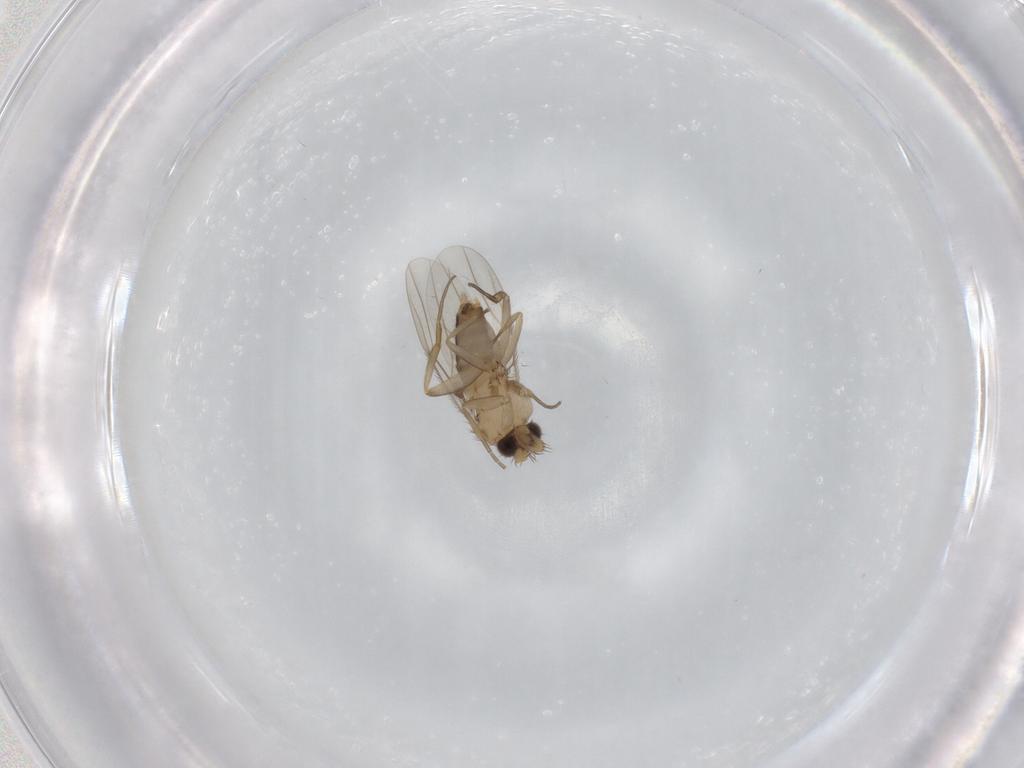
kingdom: Animalia
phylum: Arthropoda
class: Insecta
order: Diptera
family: Phoridae
